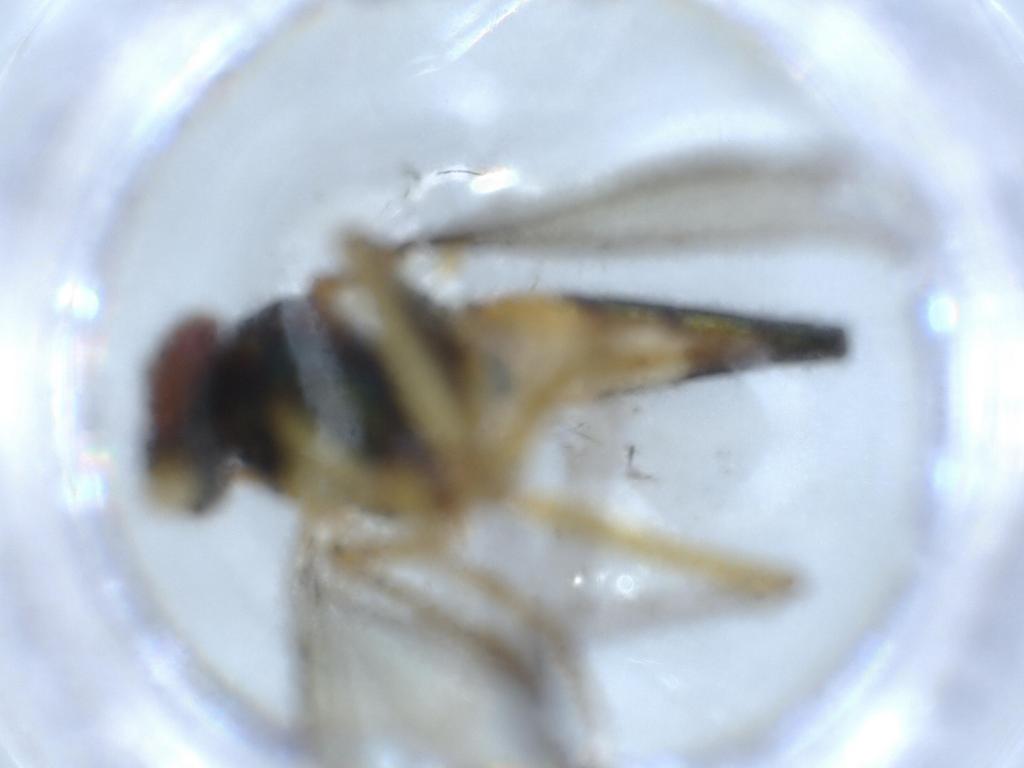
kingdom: Animalia
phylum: Arthropoda
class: Insecta
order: Diptera
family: Dolichopodidae
